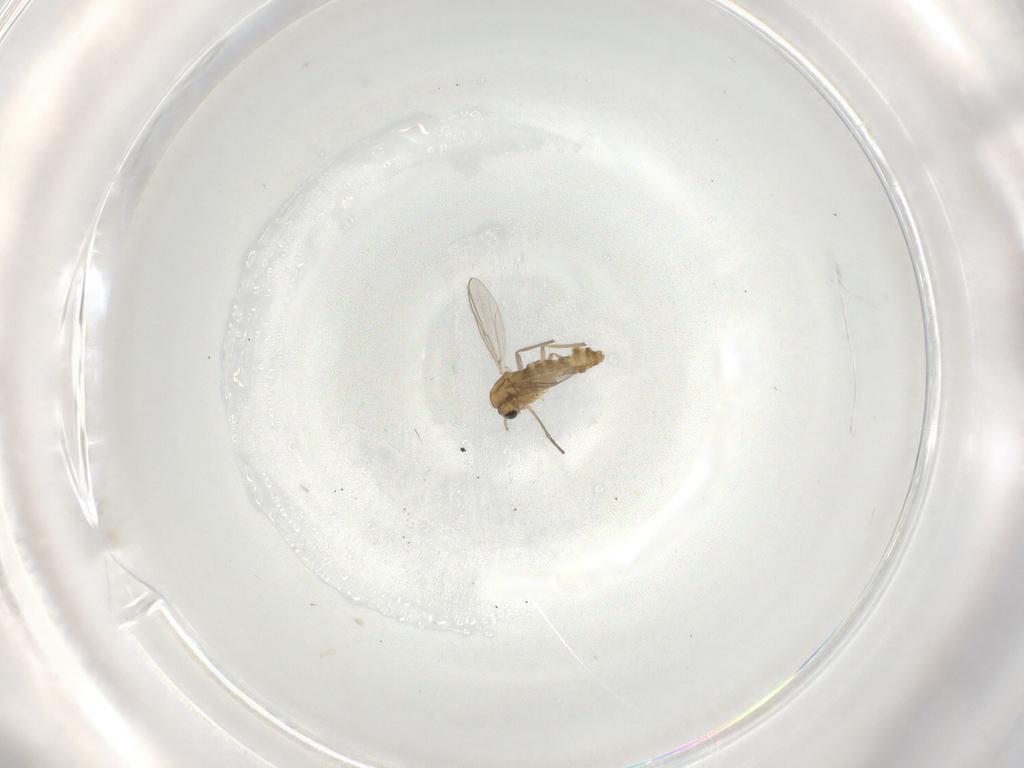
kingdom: Animalia
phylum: Arthropoda
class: Insecta
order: Diptera
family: Chironomidae
